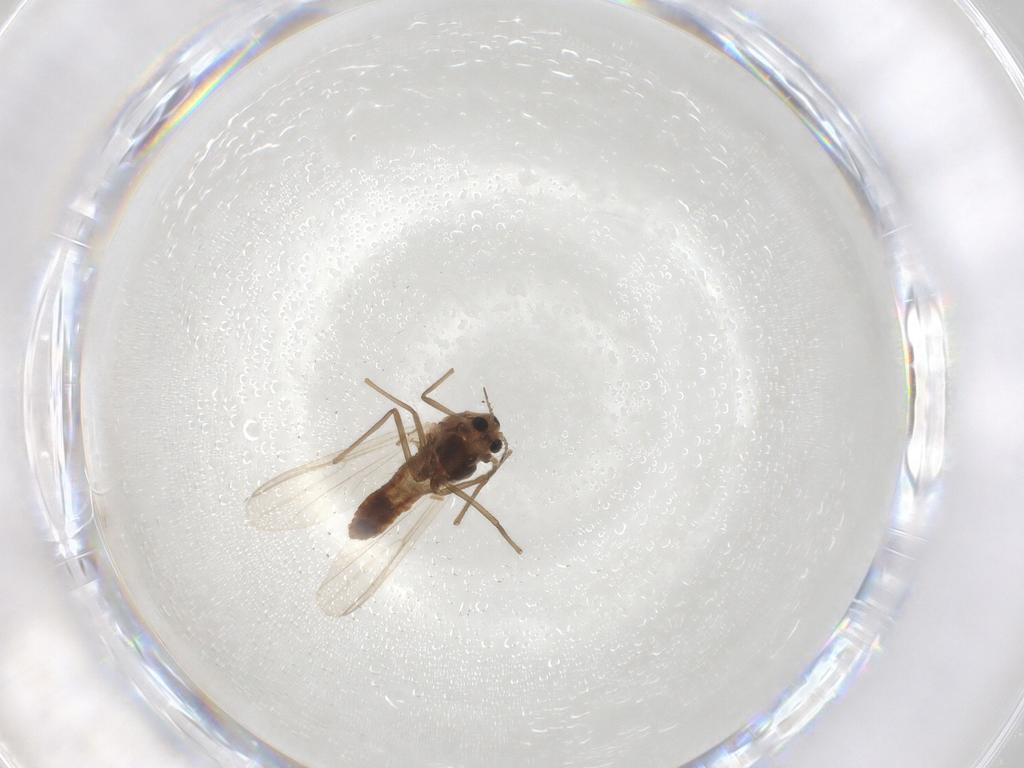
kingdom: Animalia
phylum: Arthropoda
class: Insecta
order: Diptera
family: Chironomidae
